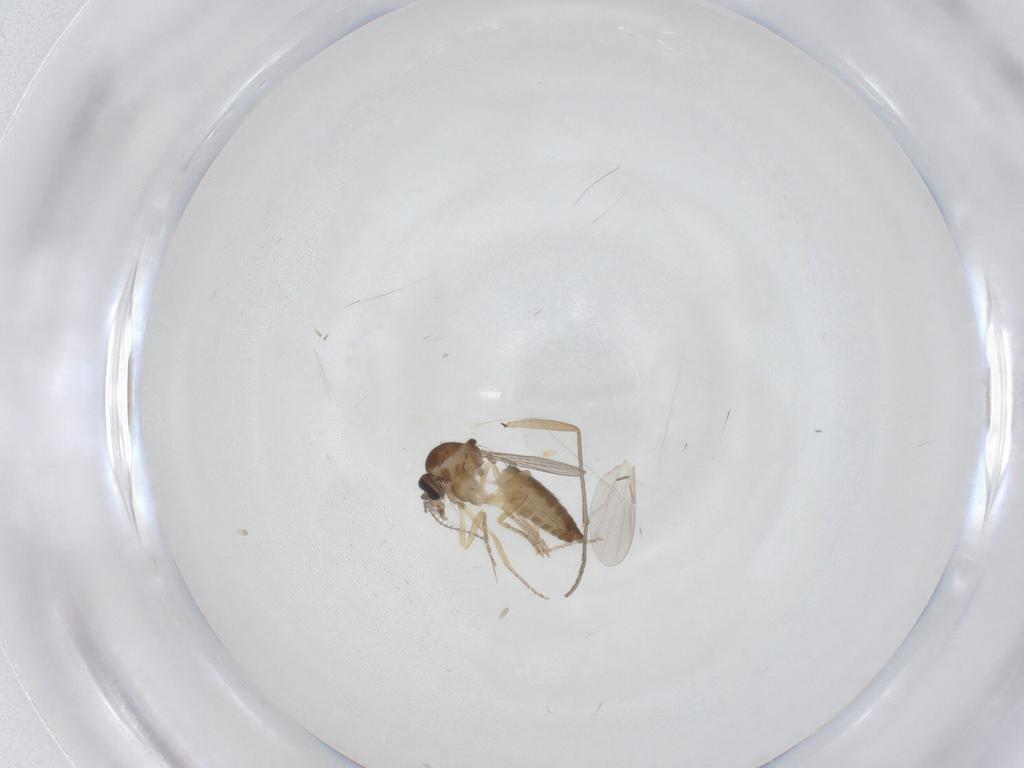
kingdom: Animalia
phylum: Arthropoda
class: Insecta
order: Diptera
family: Ceratopogonidae
